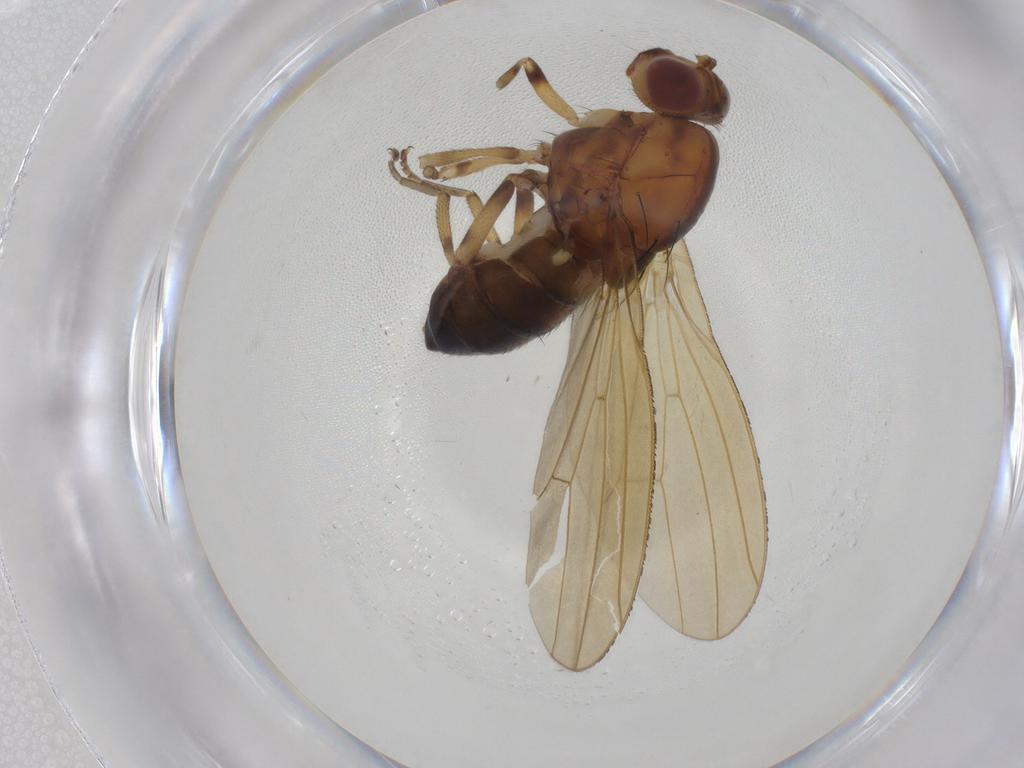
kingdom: Animalia
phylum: Arthropoda
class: Insecta
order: Diptera
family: Lauxaniidae
